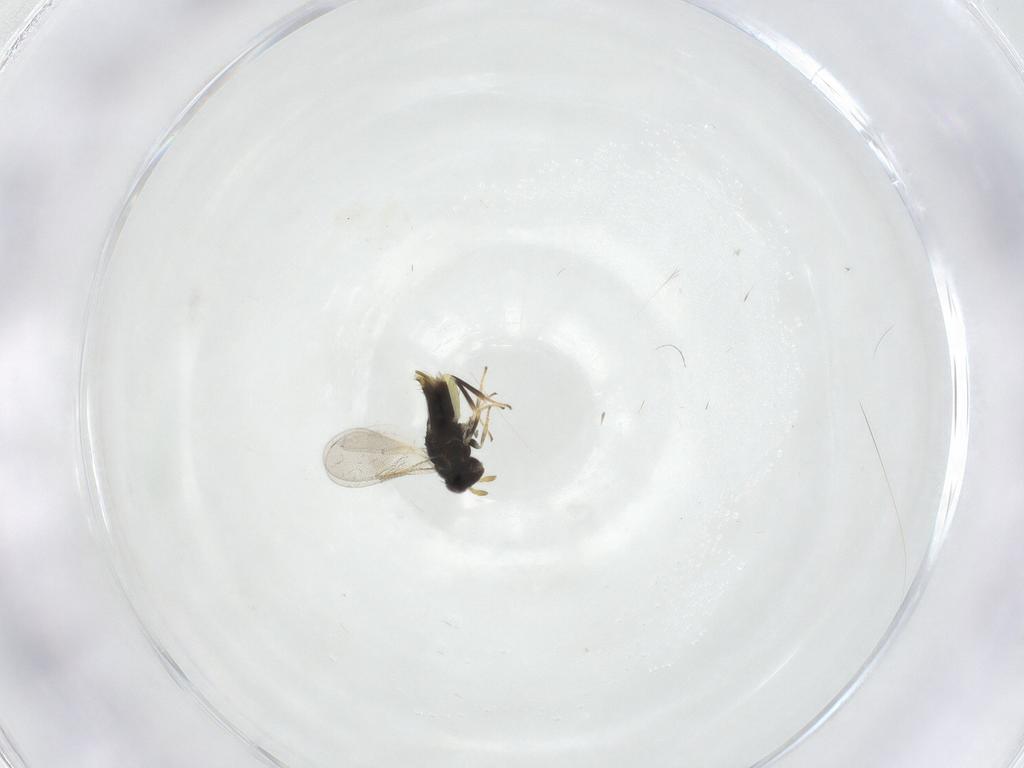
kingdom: Animalia
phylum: Arthropoda
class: Insecta
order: Hymenoptera
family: Aphelinidae
